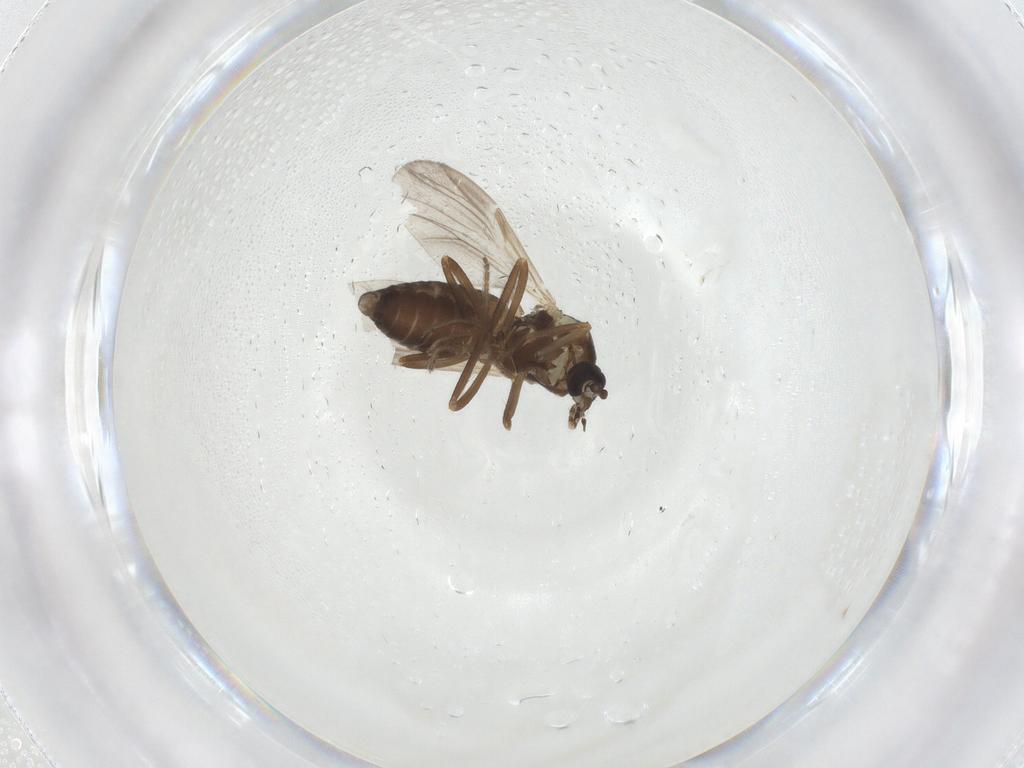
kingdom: Animalia
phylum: Arthropoda
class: Insecta
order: Diptera
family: Ceratopogonidae
